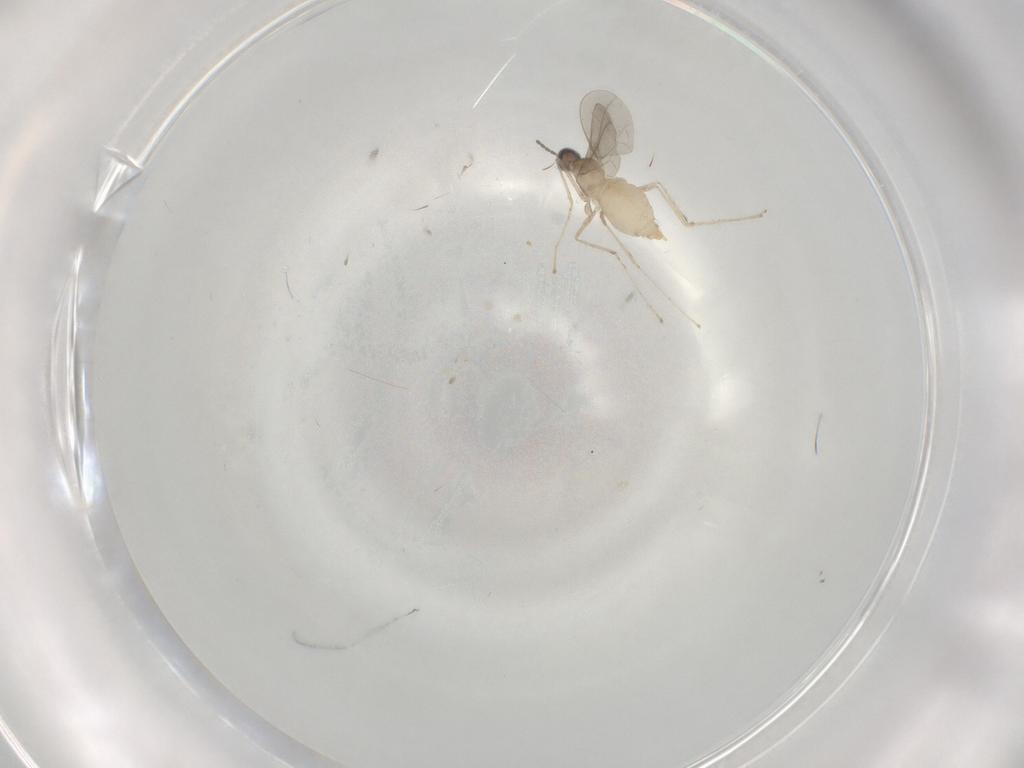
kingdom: Animalia
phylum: Arthropoda
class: Insecta
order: Diptera
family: Cecidomyiidae
